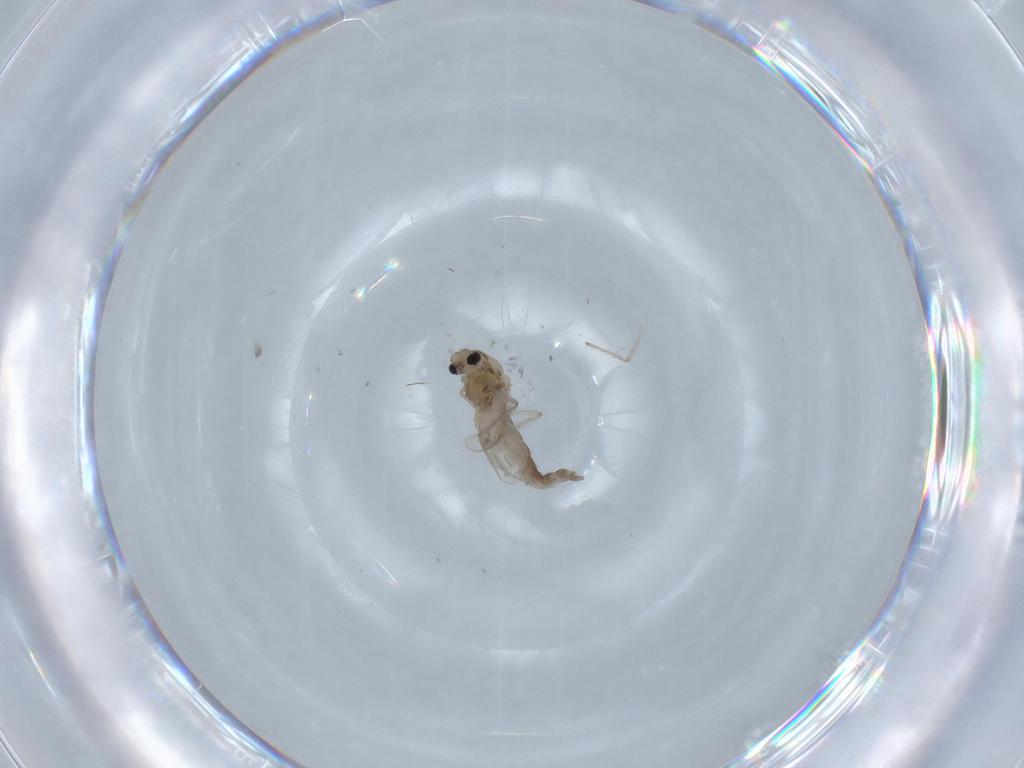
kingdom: Animalia
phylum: Arthropoda
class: Insecta
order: Diptera
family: Chironomidae
